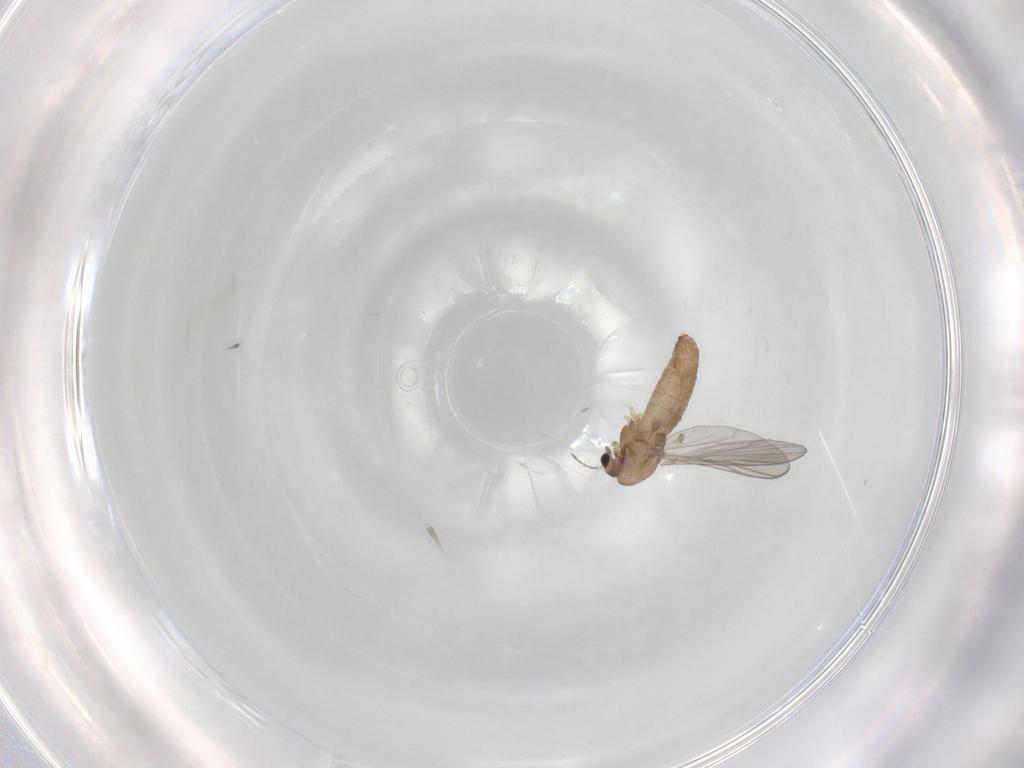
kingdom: Animalia
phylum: Arthropoda
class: Insecta
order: Diptera
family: Chironomidae
